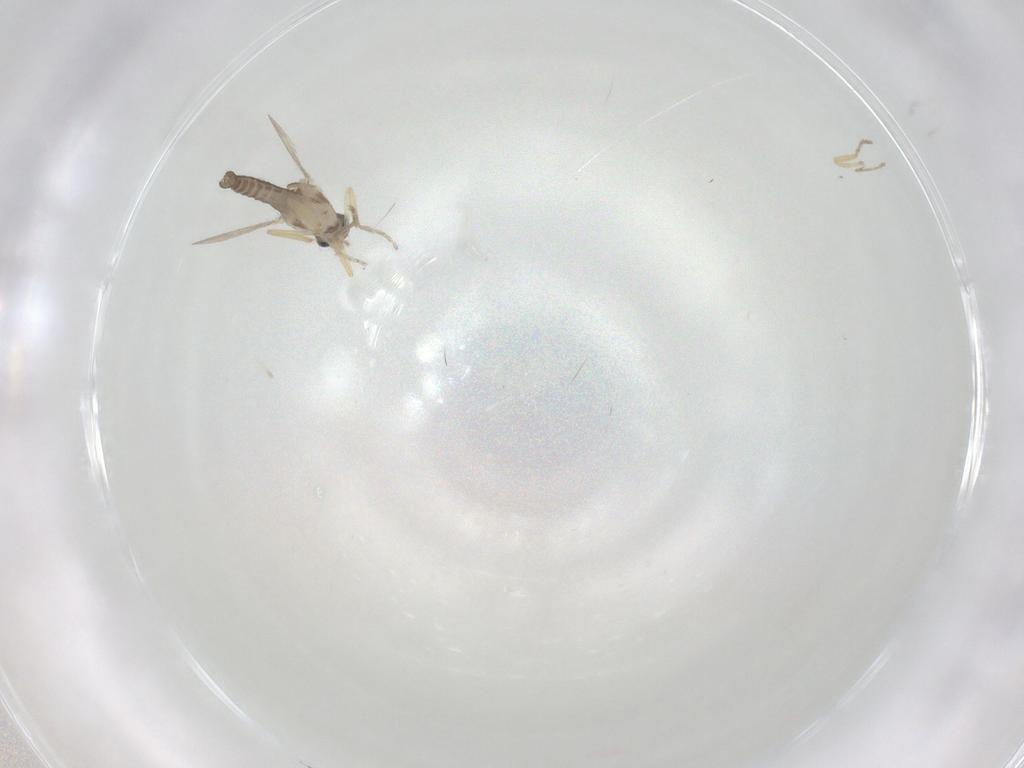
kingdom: Animalia
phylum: Arthropoda
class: Insecta
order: Diptera
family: Ceratopogonidae
